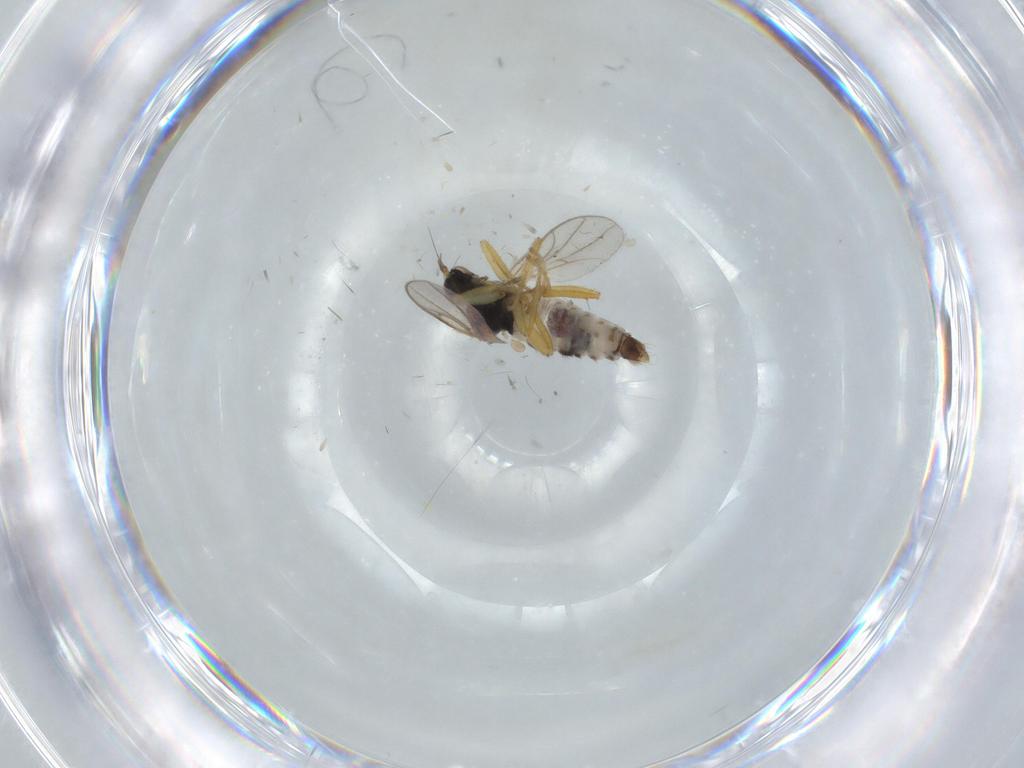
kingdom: Animalia
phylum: Arthropoda
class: Insecta
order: Diptera
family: Hybotidae
